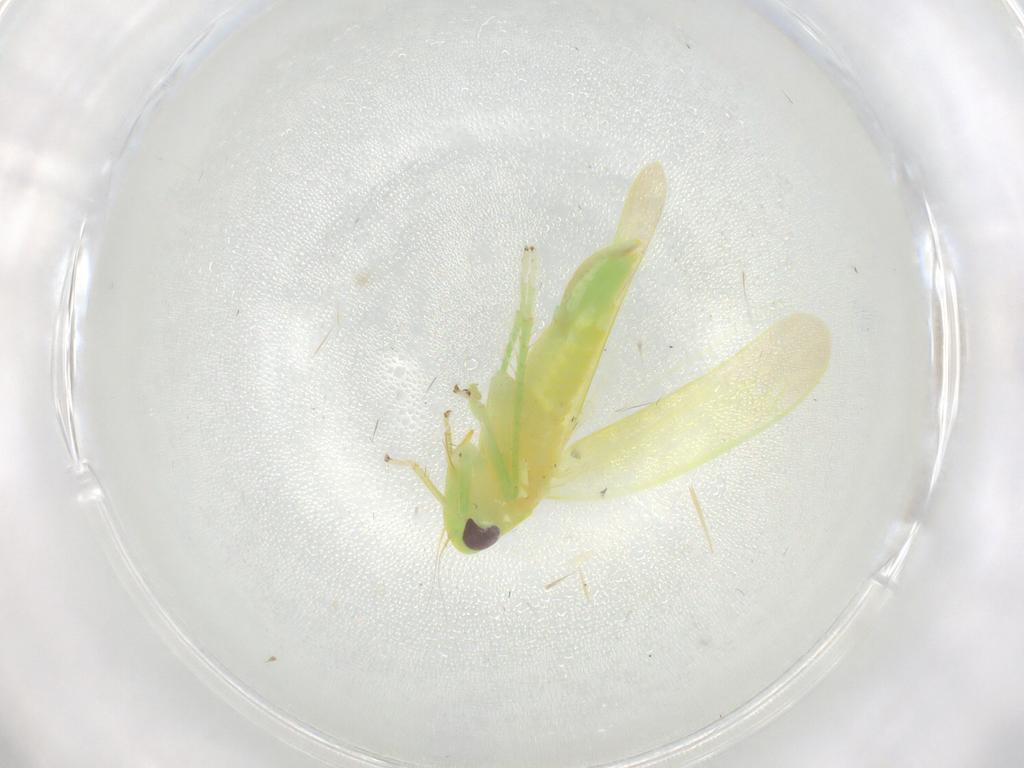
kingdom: Animalia
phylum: Arthropoda
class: Insecta
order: Hemiptera
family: Cicadellidae
